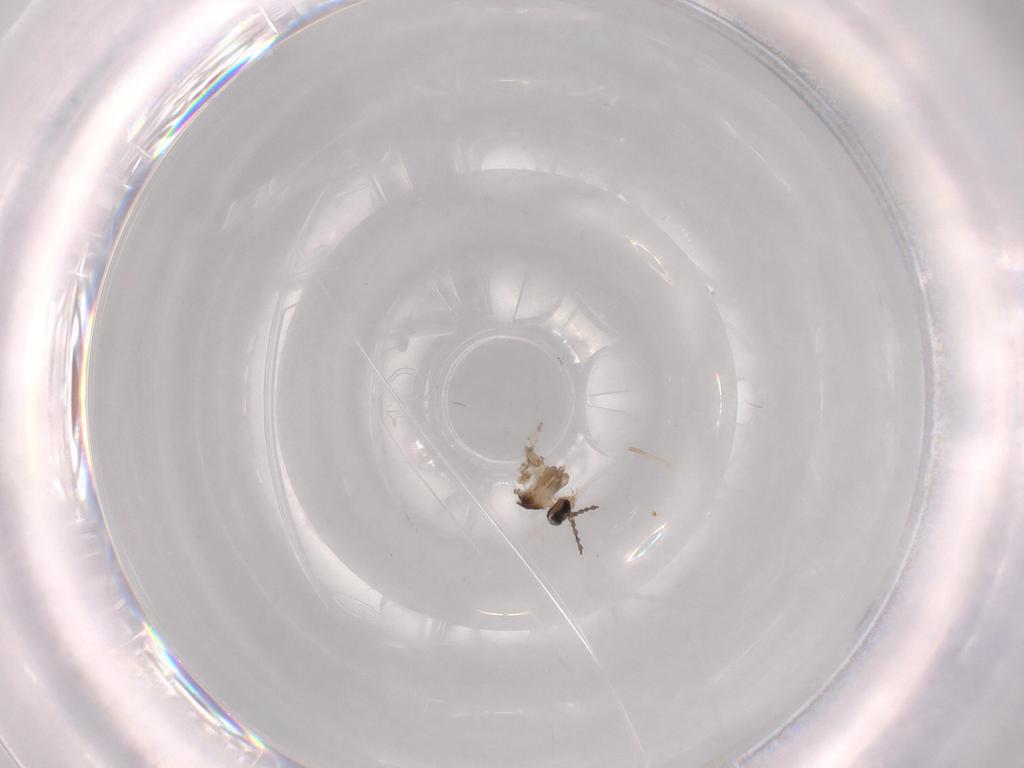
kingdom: Animalia
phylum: Arthropoda
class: Insecta
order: Diptera
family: Cecidomyiidae
